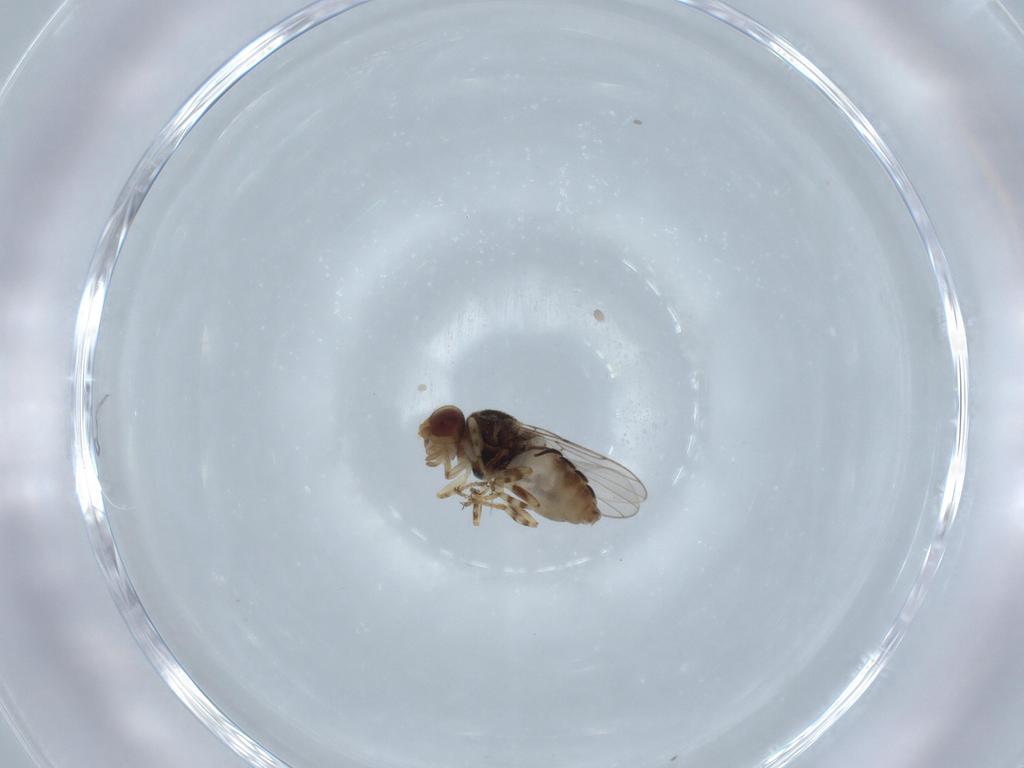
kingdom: Animalia
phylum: Arthropoda
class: Insecta
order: Diptera
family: Chloropidae
